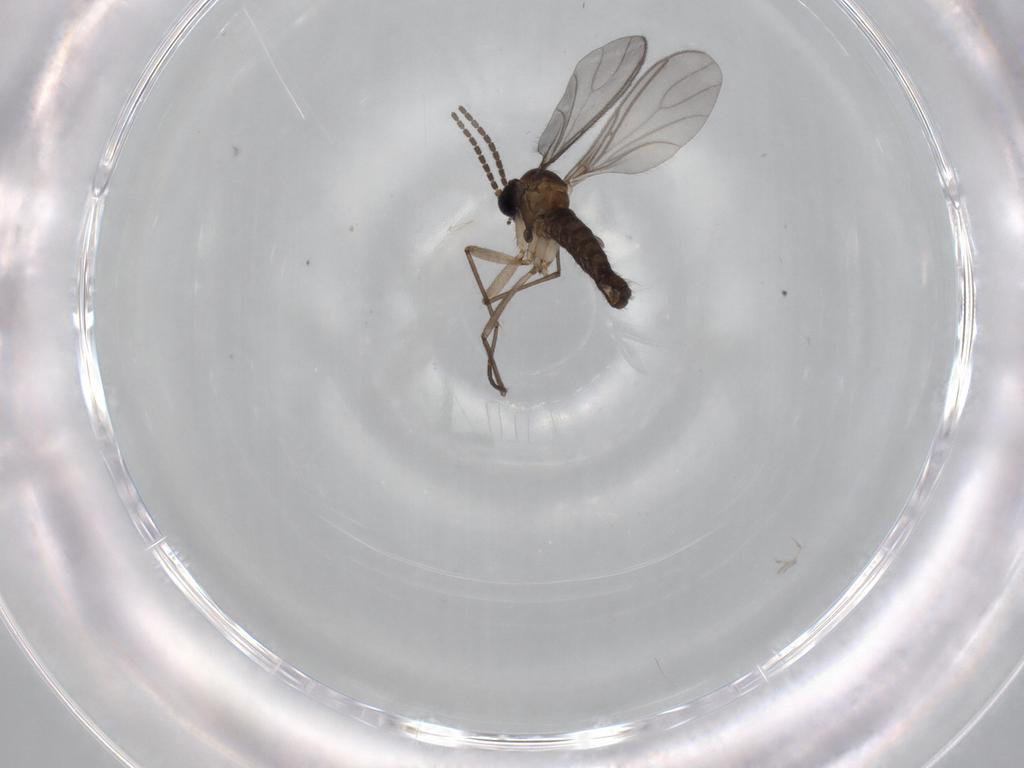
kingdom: Animalia
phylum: Arthropoda
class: Insecta
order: Diptera
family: Sciaridae
